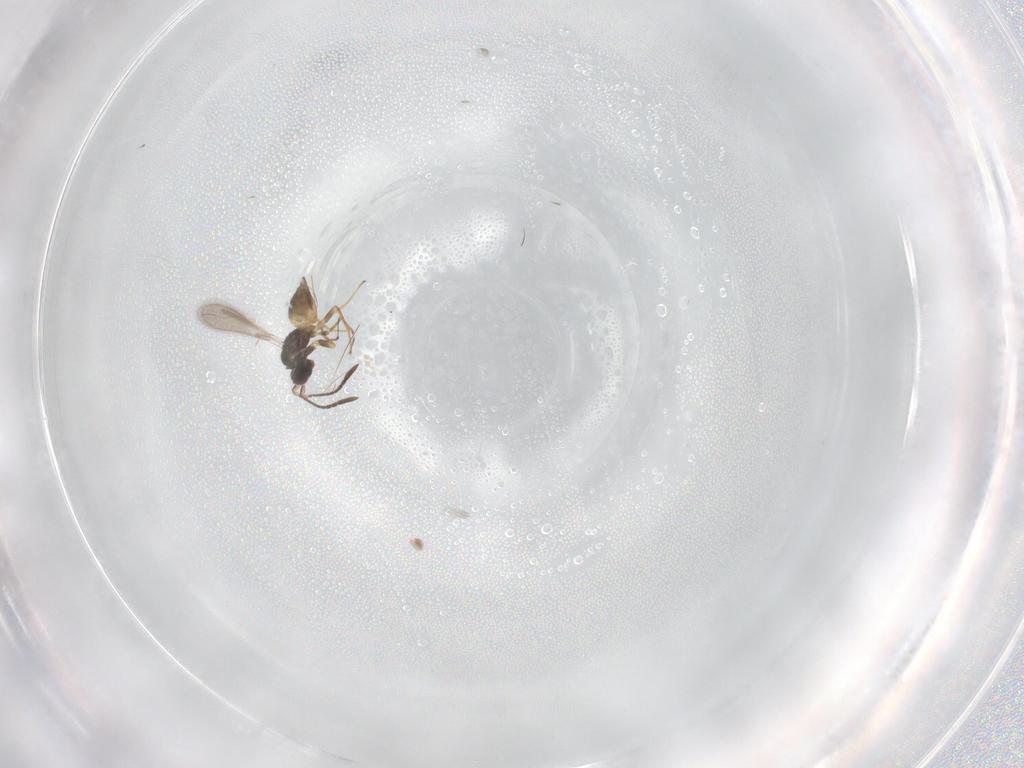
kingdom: Animalia
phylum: Arthropoda
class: Insecta
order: Hymenoptera
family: Mymaridae
